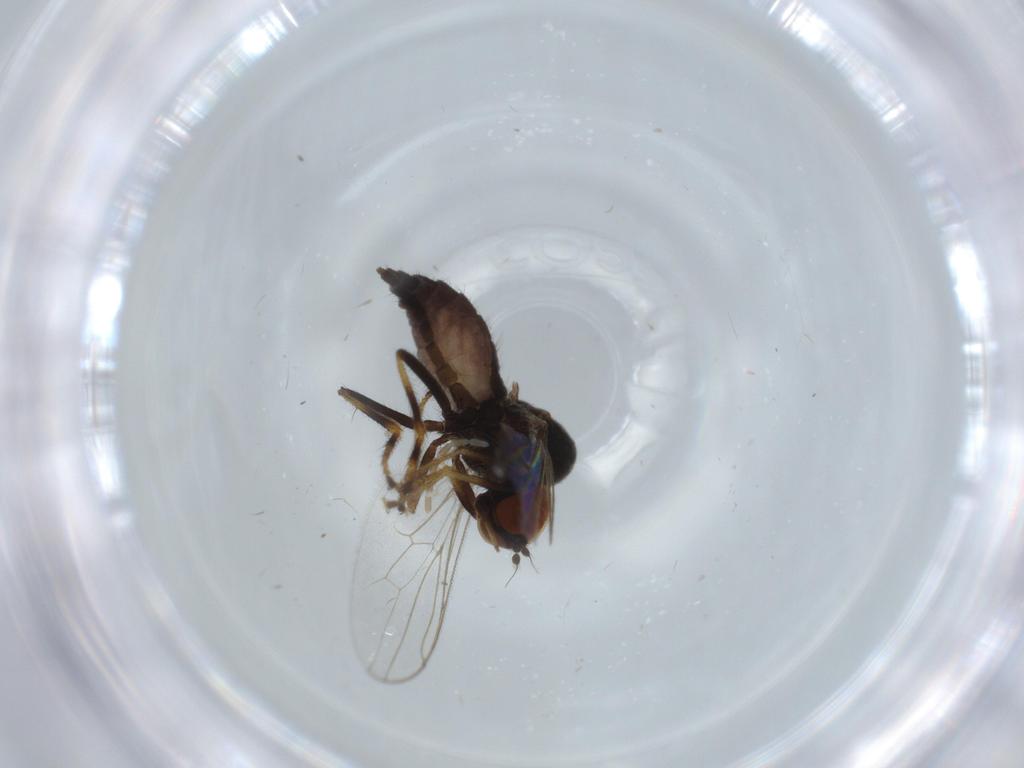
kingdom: Animalia
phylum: Arthropoda
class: Insecta
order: Diptera
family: Hybotidae
